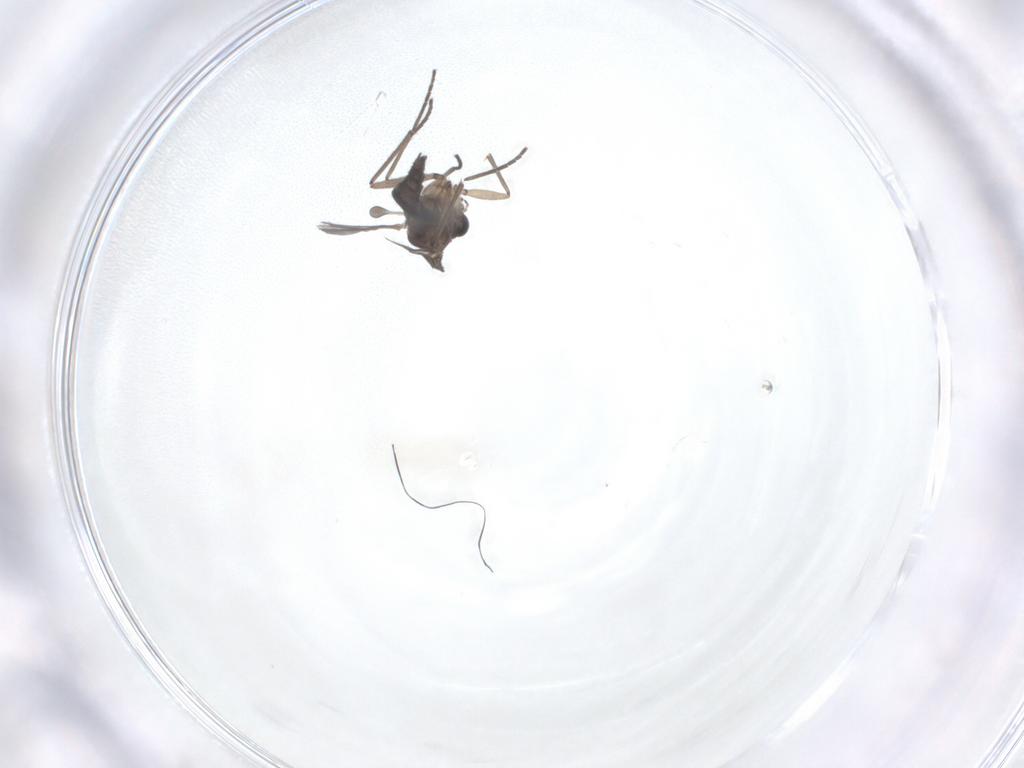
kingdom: Animalia
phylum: Arthropoda
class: Insecta
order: Diptera
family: Sciaridae
